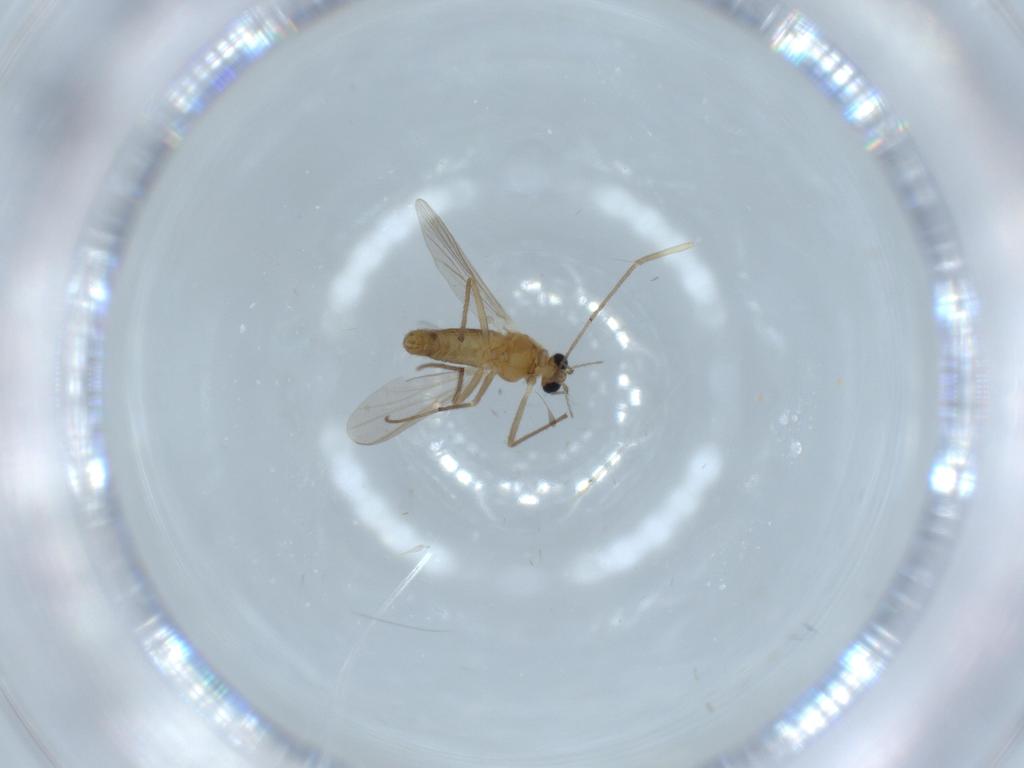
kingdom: Animalia
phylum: Arthropoda
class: Insecta
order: Diptera
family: Chironomidae
